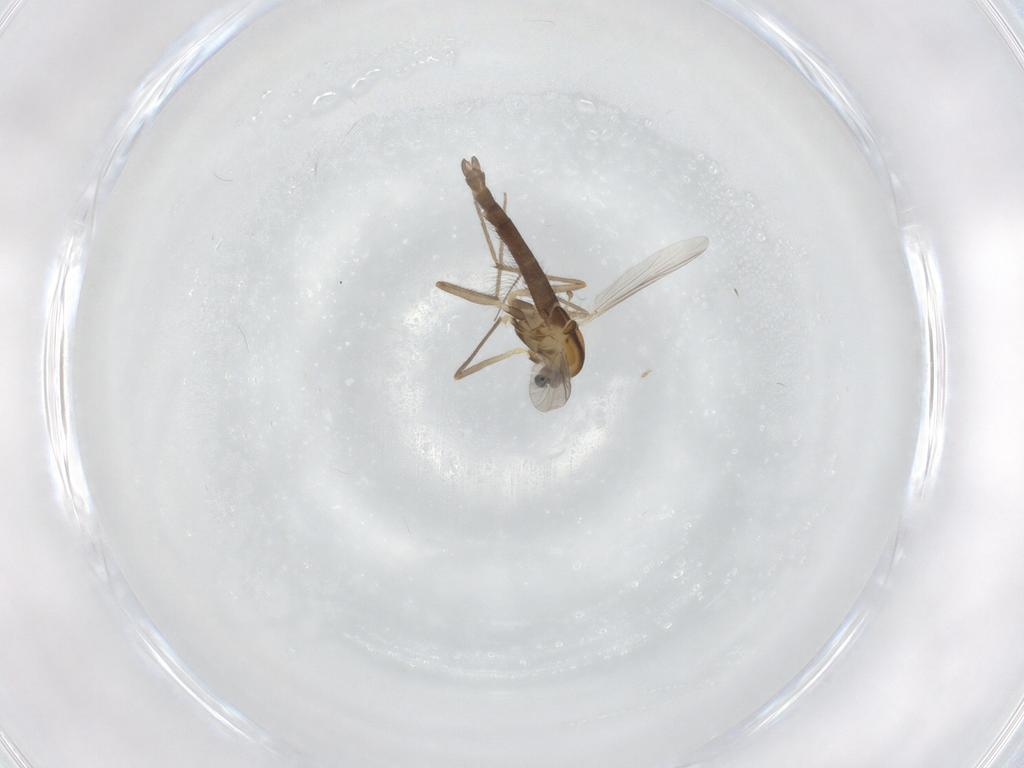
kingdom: Animalia
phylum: Arthropoda
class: Insecta
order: Diptera
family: Chironomidae
